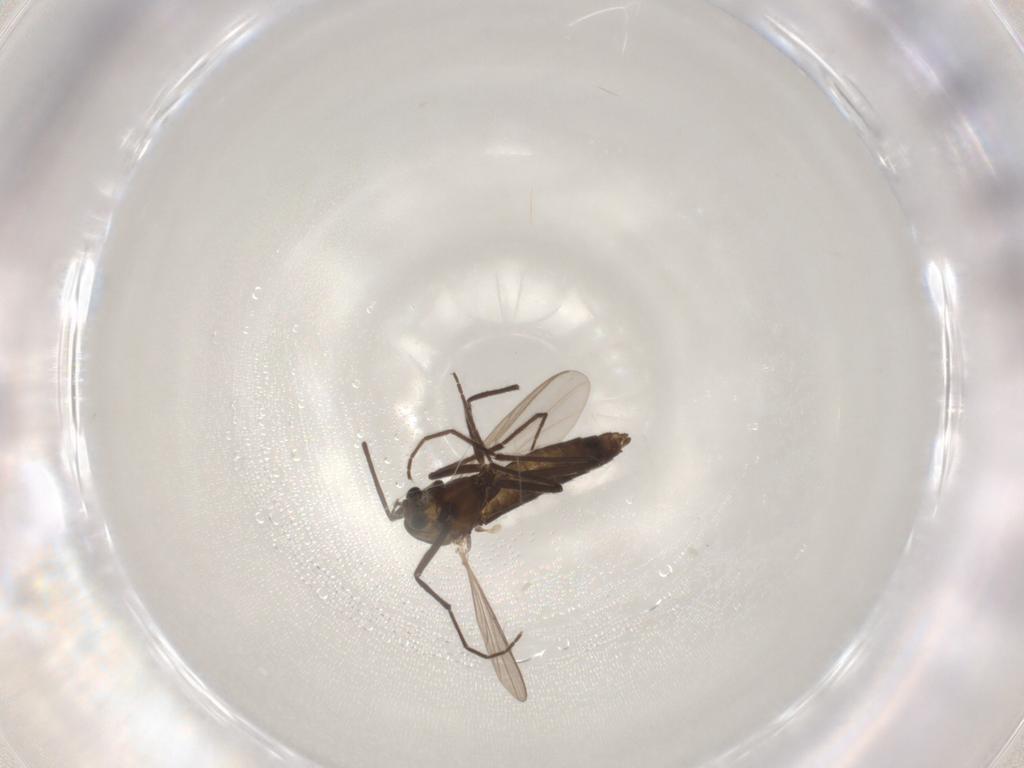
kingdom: Animalia
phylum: Arthropoda
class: Insecta
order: Diptera
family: Chironomidae
